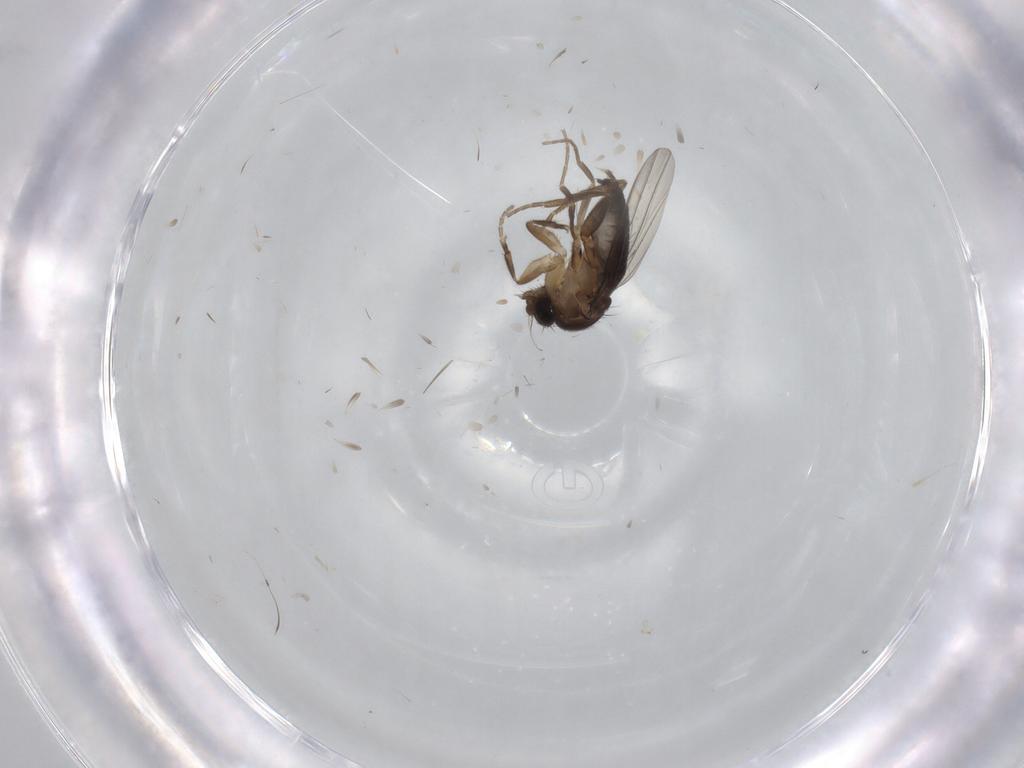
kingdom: Animalia
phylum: Arthropoda
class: Insecta
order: Diptera
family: Phoridae
